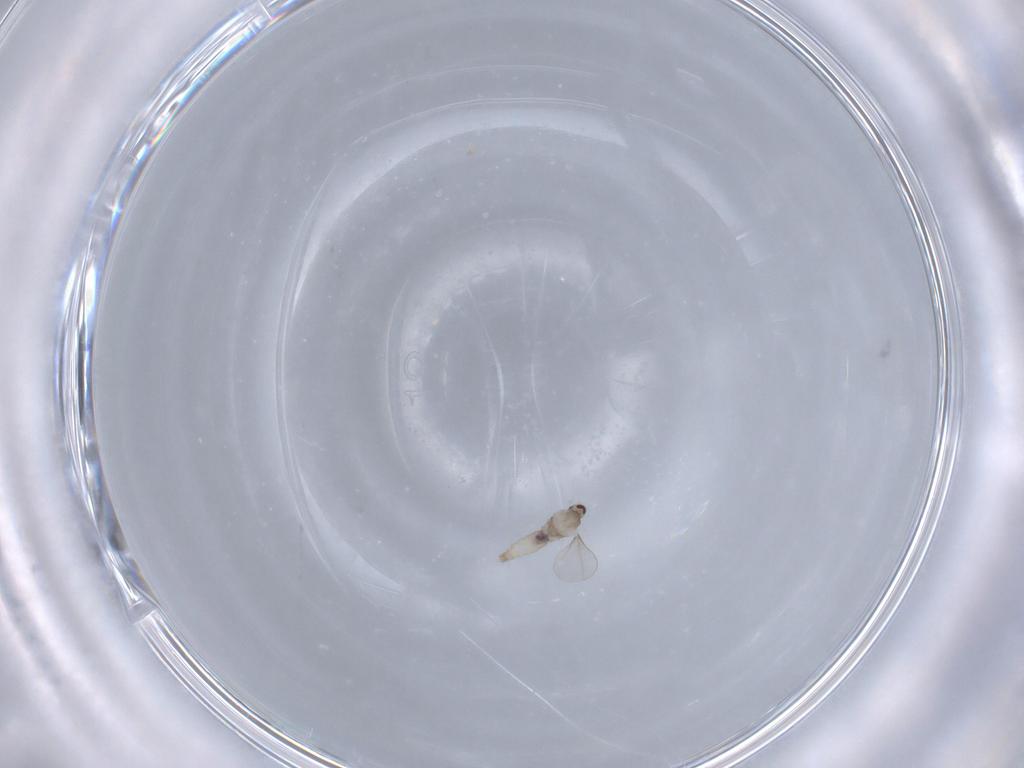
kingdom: Animalia
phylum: Arthropoda
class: Insecta
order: Diptera
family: Cecidomyiidae
